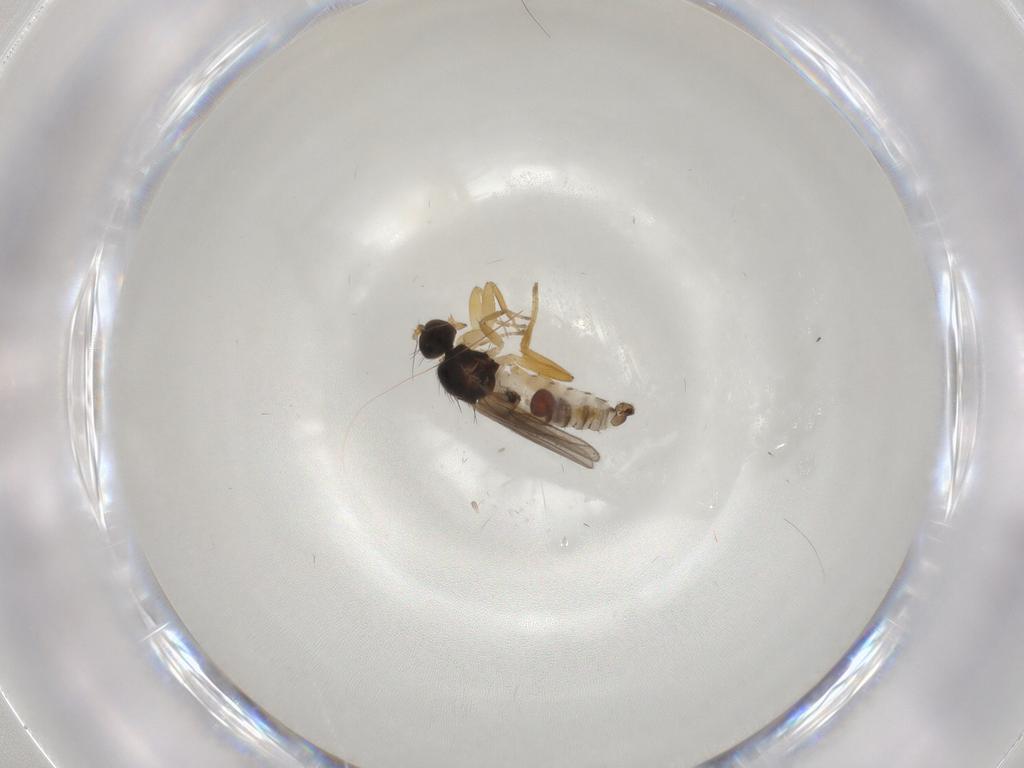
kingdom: Animalia
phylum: Arthropoda
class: Insecta
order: Diptera
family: Hybotidae
